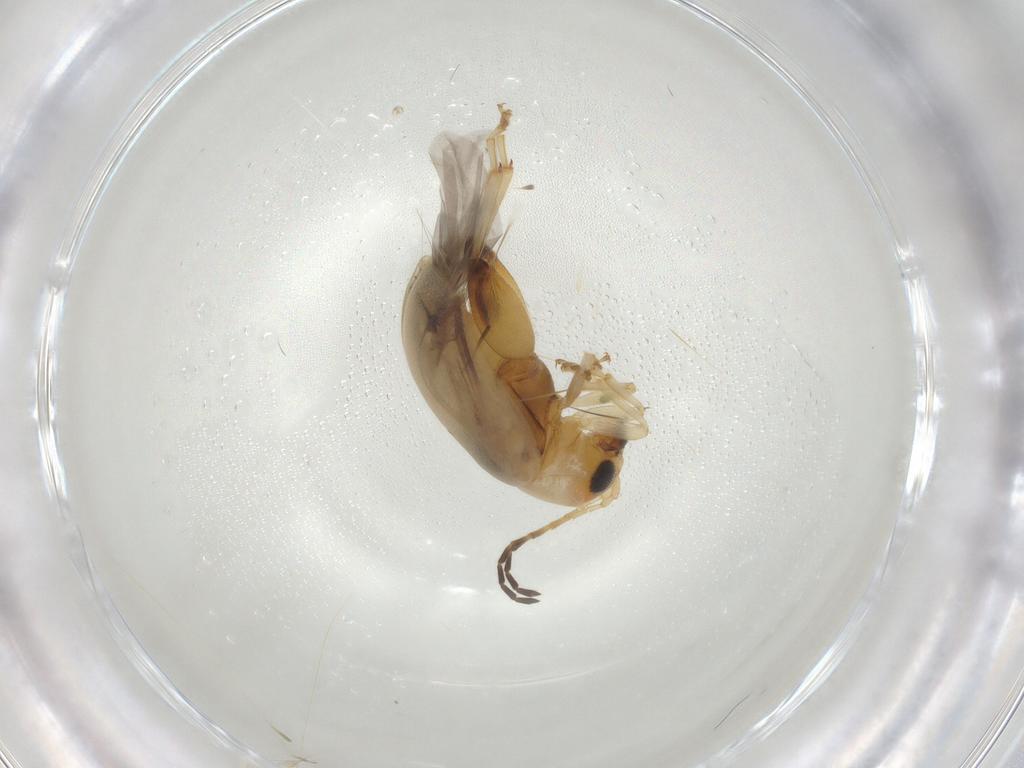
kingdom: Animalia
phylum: Arthropoda
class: Insecta
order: Coleoptera
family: Chrysomelidae
